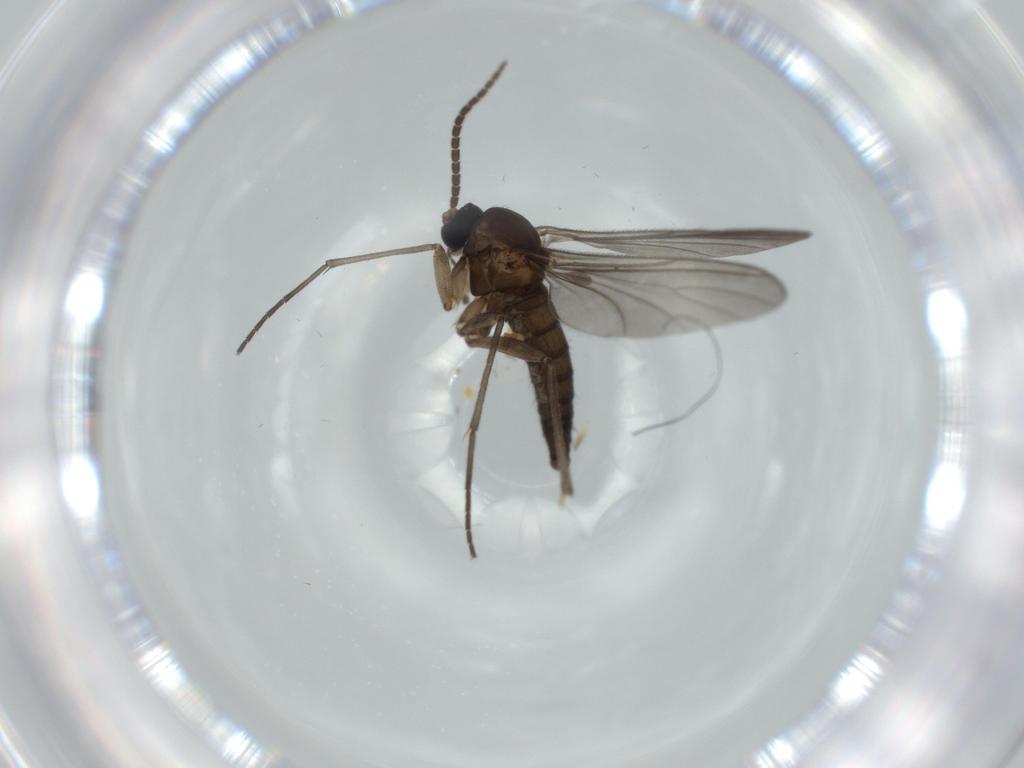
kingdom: Animalia
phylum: Arthropoda
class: Insecta
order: Diptera
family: Sciaridae
